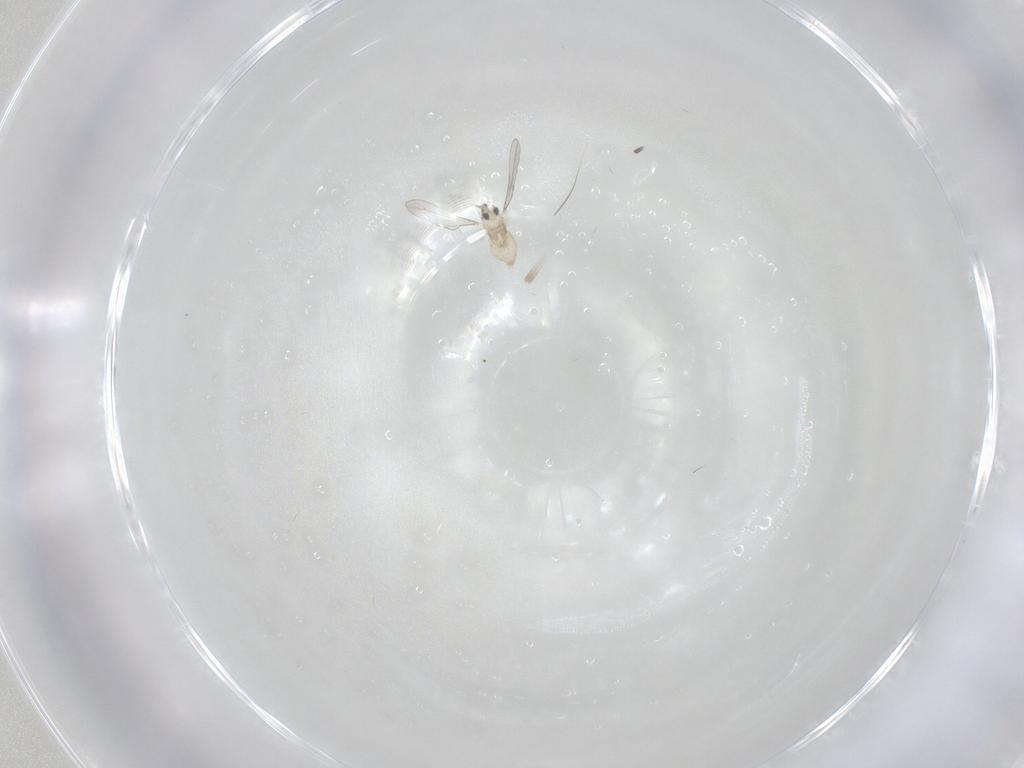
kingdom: Animalia
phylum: Arthropoda
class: Insecta
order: Diptera
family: Cecidomyiidae
